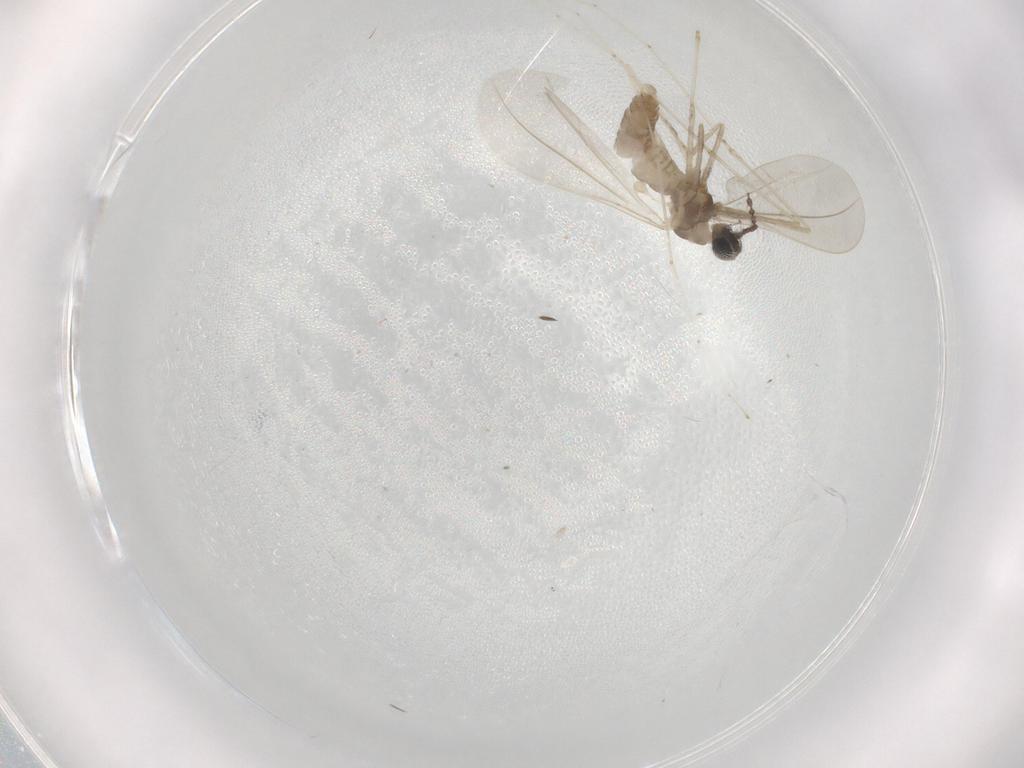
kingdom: Animalia
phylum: Arthropoda
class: Insecta
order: Diptera
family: Cecidomyiidae
